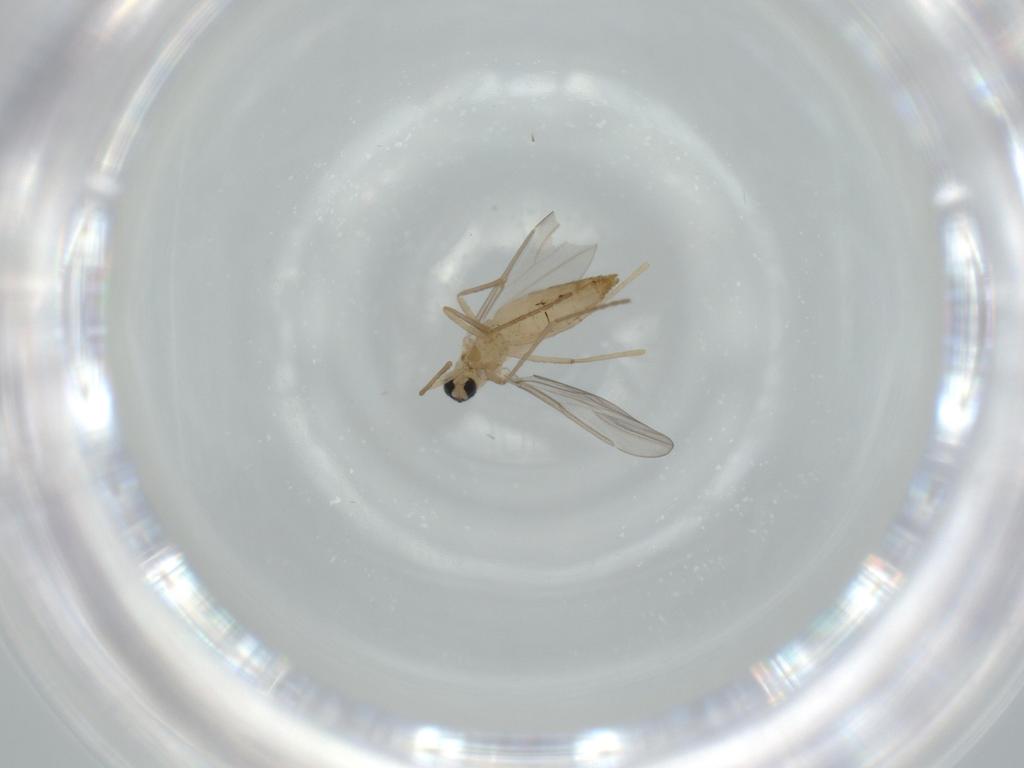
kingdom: Animalia
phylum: Arthropoda
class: Insecta
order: Diptera
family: Cecidomyiidae
